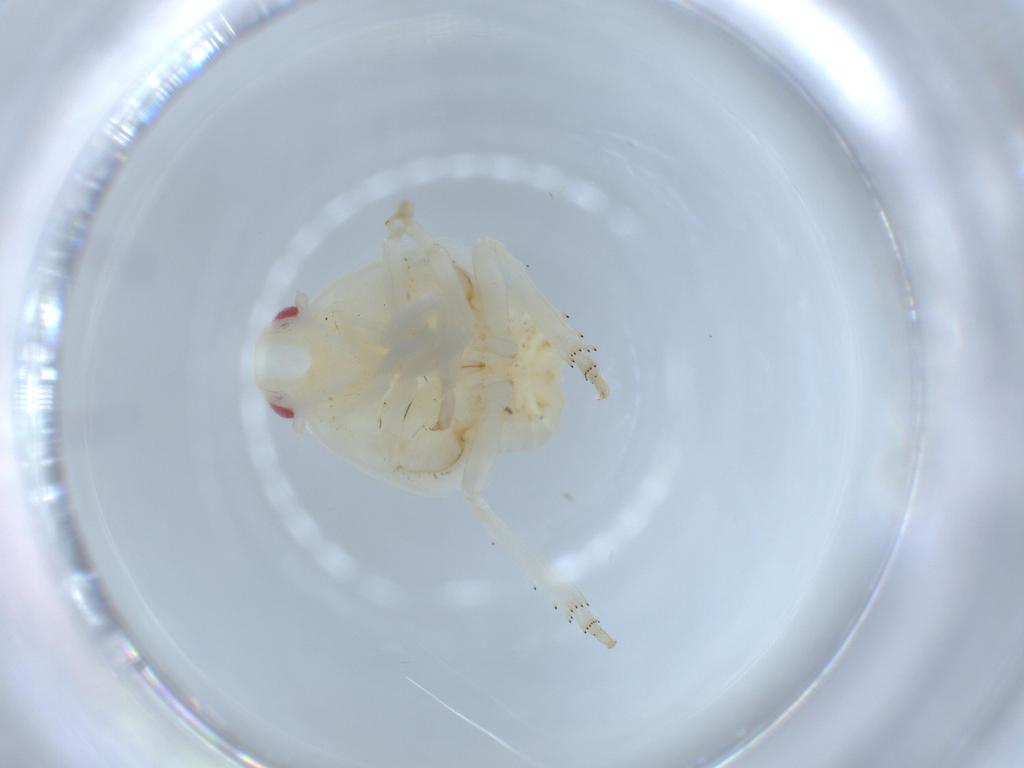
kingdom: Animalia
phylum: Arthropoda
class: Insecta
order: Hemiptera
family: Flatidae
